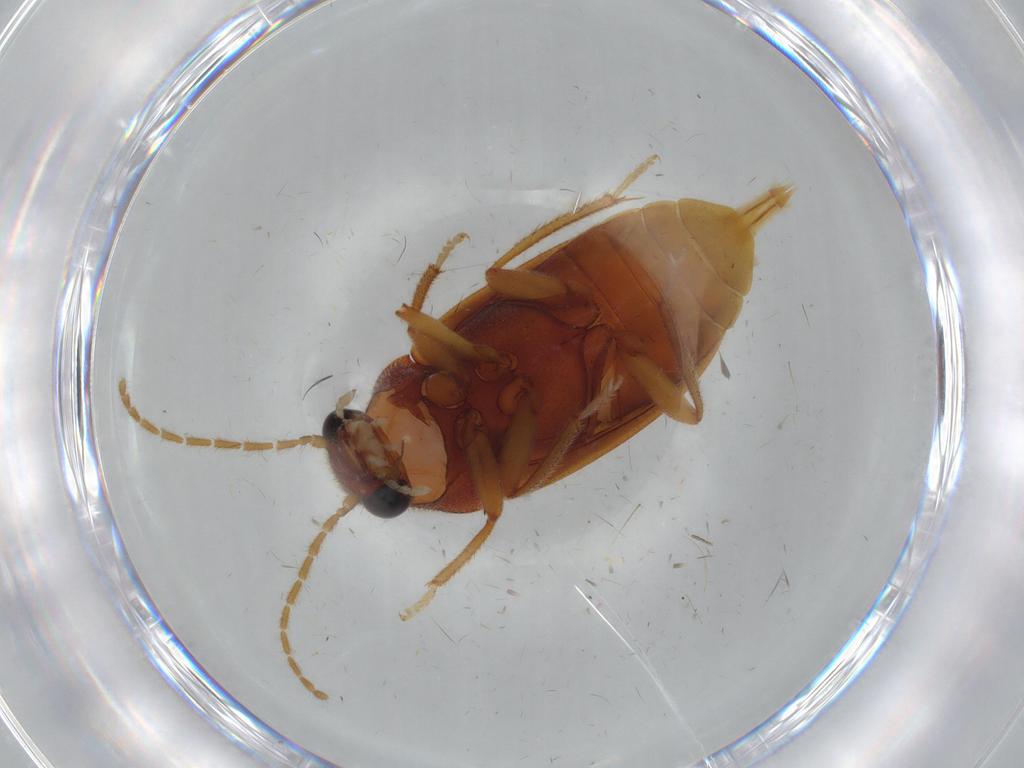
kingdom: Animalia
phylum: Arthropoda
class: Insecta
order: Coleoptera
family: Ptilodactylidae
